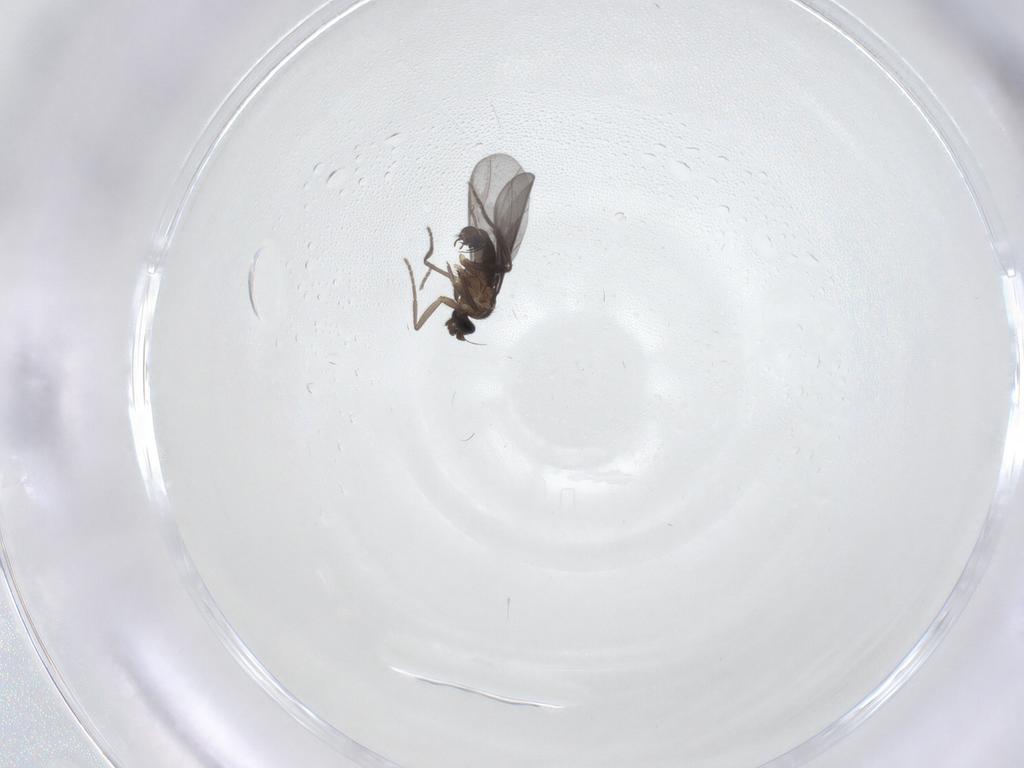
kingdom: Animalia
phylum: Arthropoda
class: Insecta
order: Diptera
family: Phoridae
